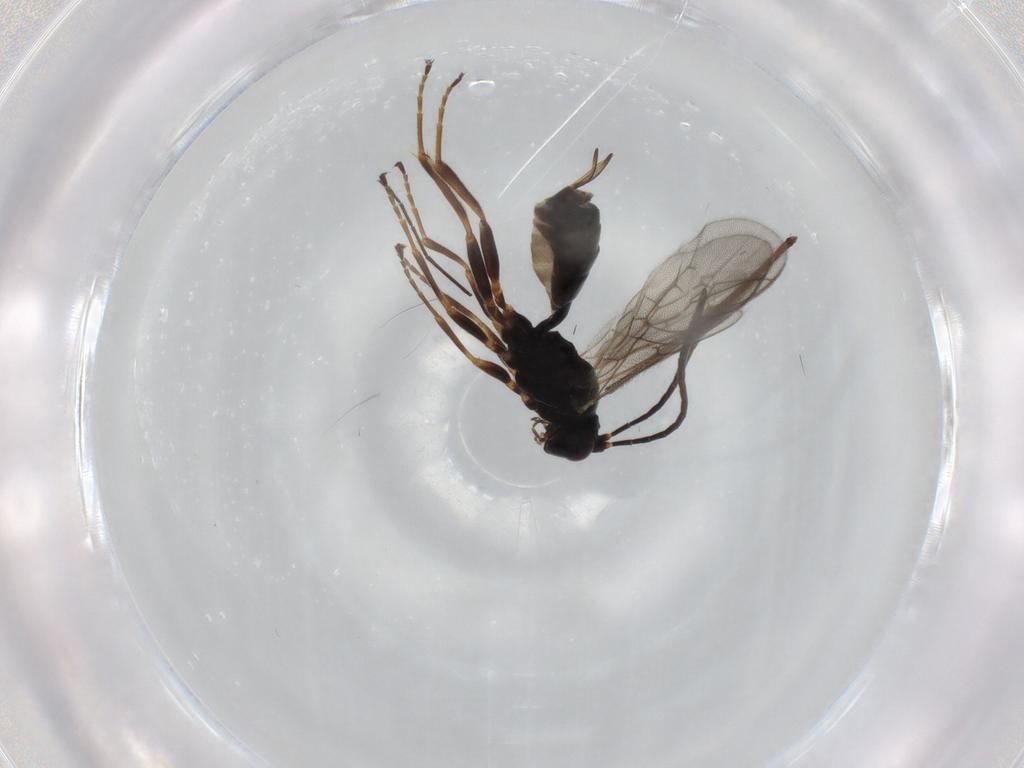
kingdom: Animalia
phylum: Arthropoda
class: Insecta
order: Hymenoptera
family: Ichneumonidae
